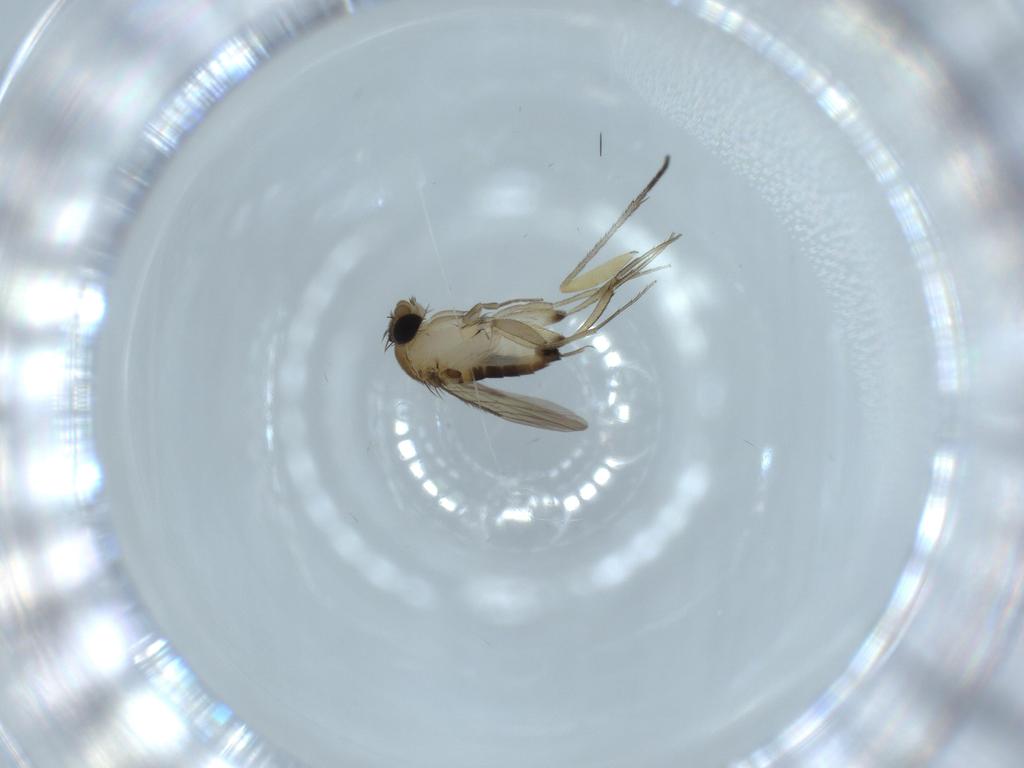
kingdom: Animalia
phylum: Arthropoda
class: Insecta
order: Diptera
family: Phoridae
